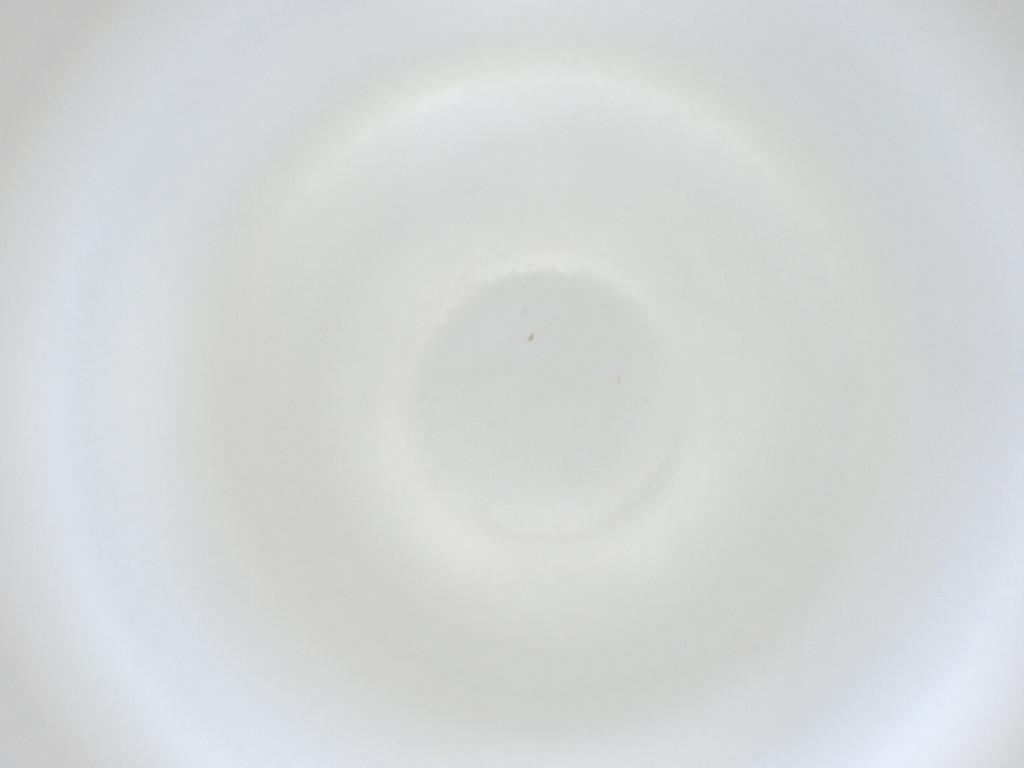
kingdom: Animalia
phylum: Arthropoda
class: Insecta
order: Diptera
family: Cecidomyiidae
